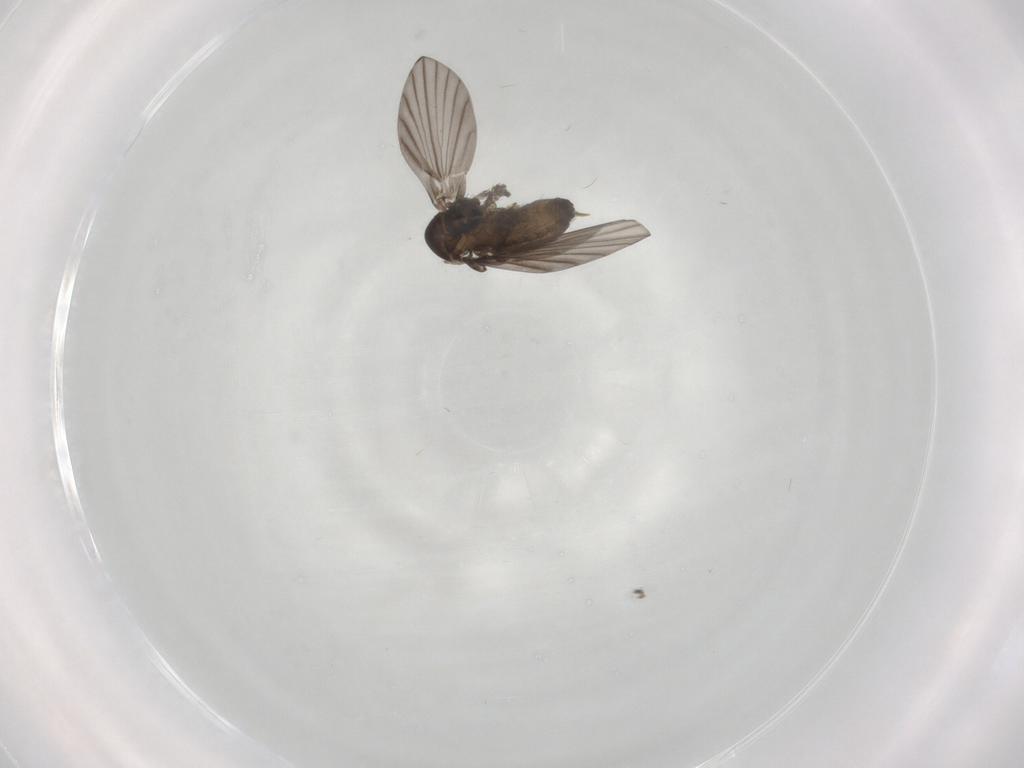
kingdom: Animalia
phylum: Arthropoda
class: Insecta
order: Diptera
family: Psychodidae
